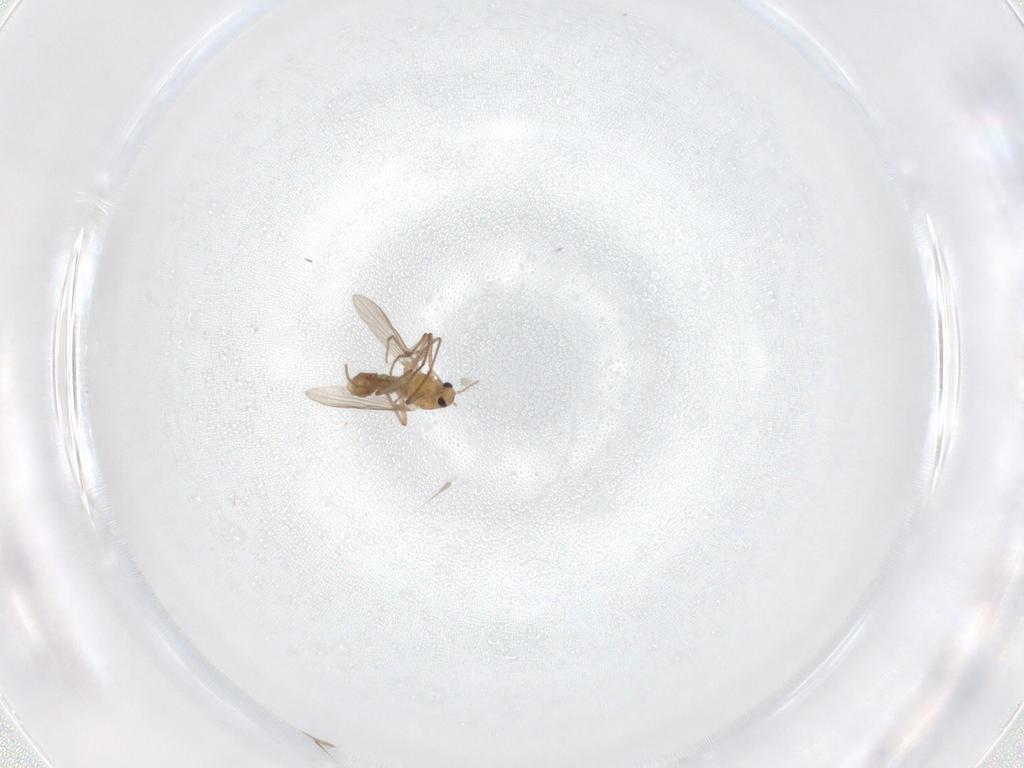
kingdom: Animalia
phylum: Arthropoda
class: Insecta
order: Diptera
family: Chironomidae
